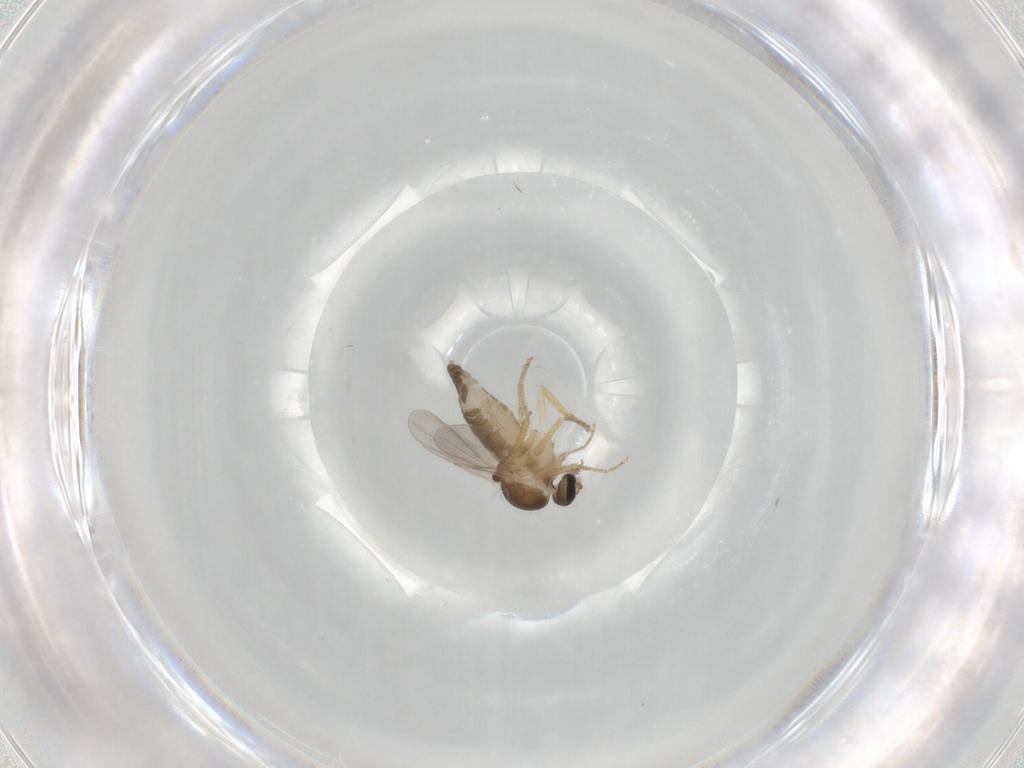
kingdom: Animalia
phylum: Arthropoda
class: Insecta
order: Diptera
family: Ceratopogonidae
